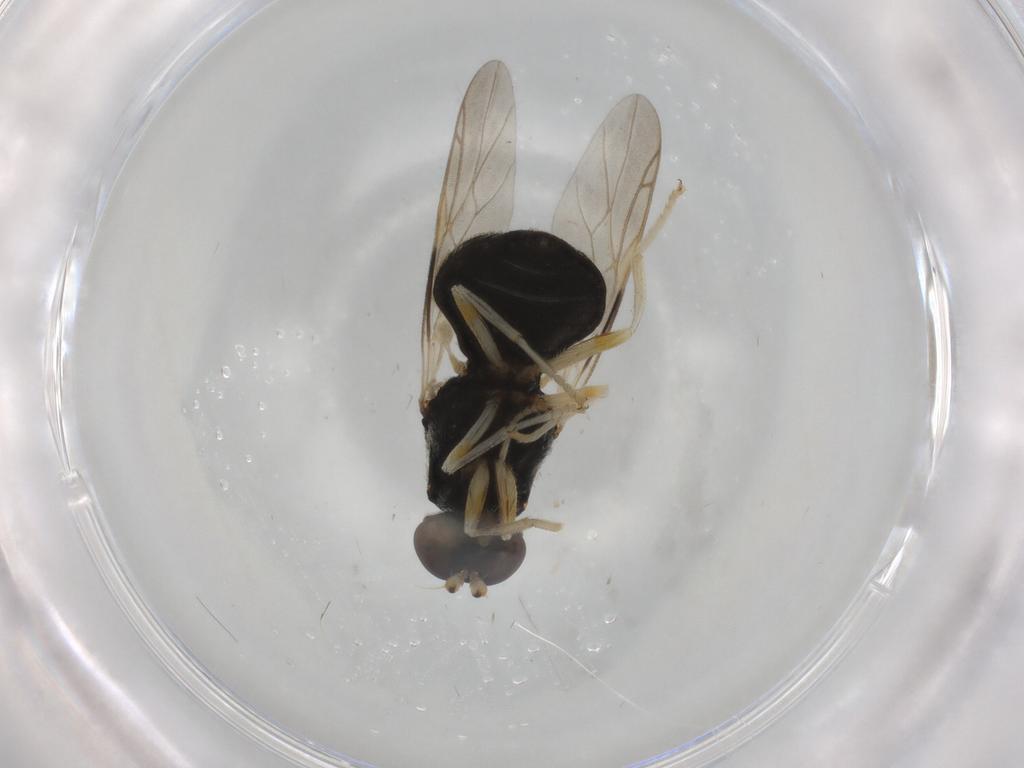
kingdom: Animalia
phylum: Arthropoda
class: Insecta
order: Diptera
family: Stratiomyidae
